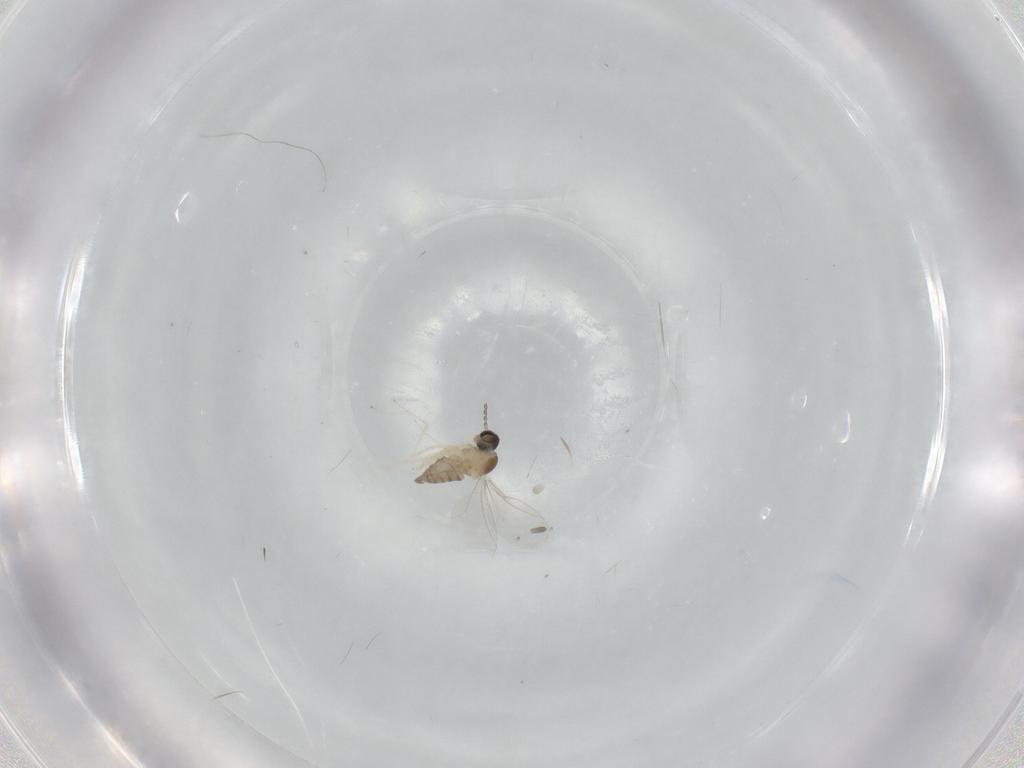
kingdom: Animalia
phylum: Arthropoda
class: Insecta
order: Diptera
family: Cecidomyiidae
